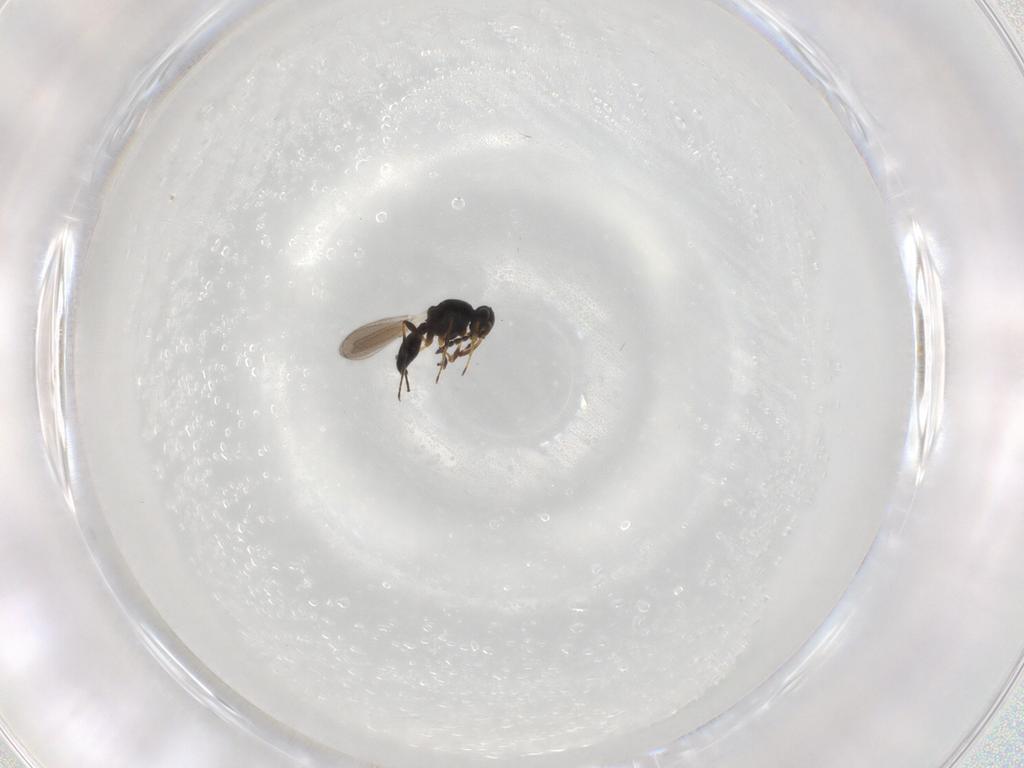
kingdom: Animalia
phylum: Arthropoda
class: Insecta
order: Hymenoptera
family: Platygastridae
